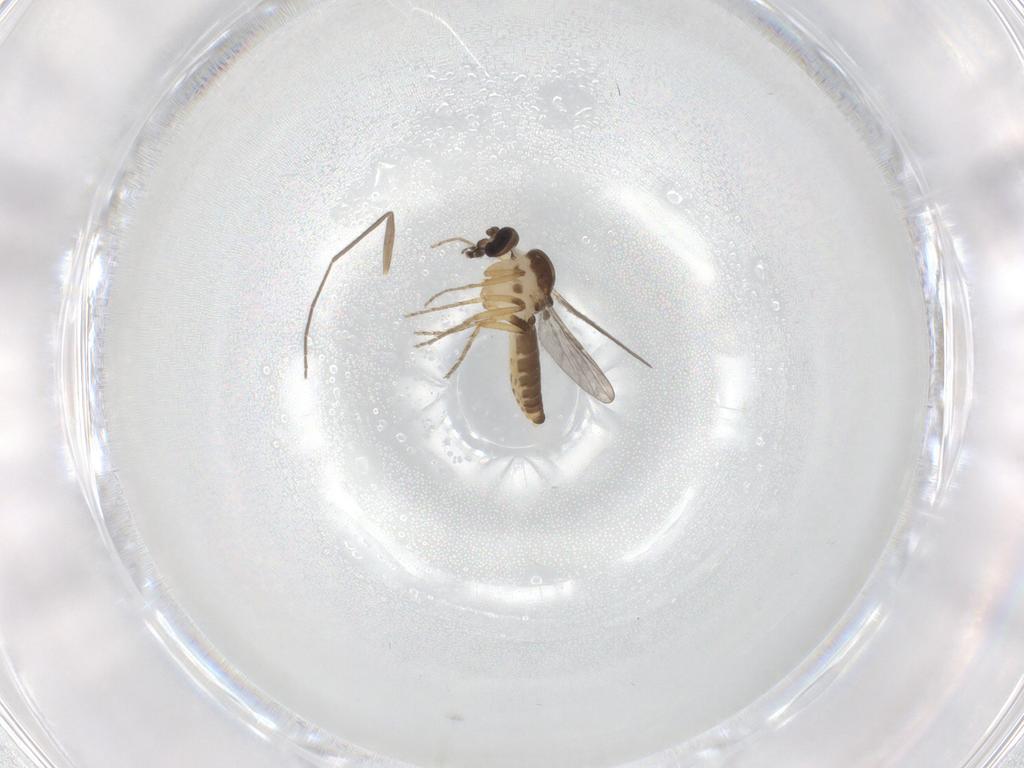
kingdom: Animalia
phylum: Arthropoda
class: Insecta
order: Diptera
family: Chironomidae
